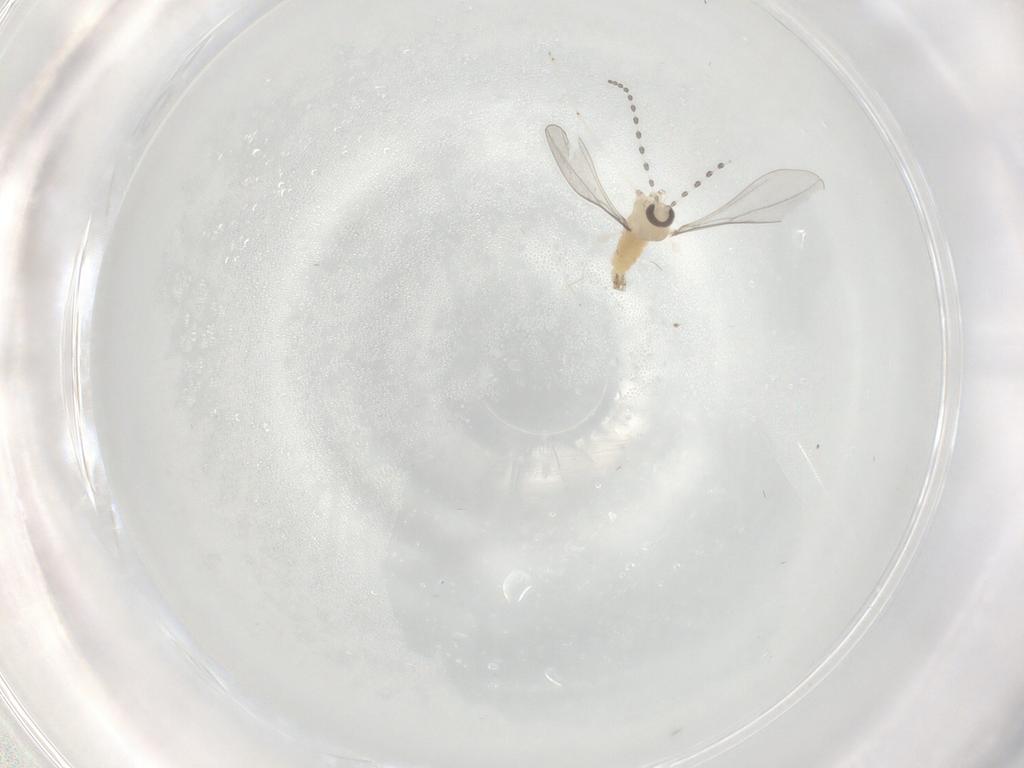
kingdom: Animalia
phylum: Arthropoda
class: Insecta
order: Diptera
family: Cecidomyiidae
